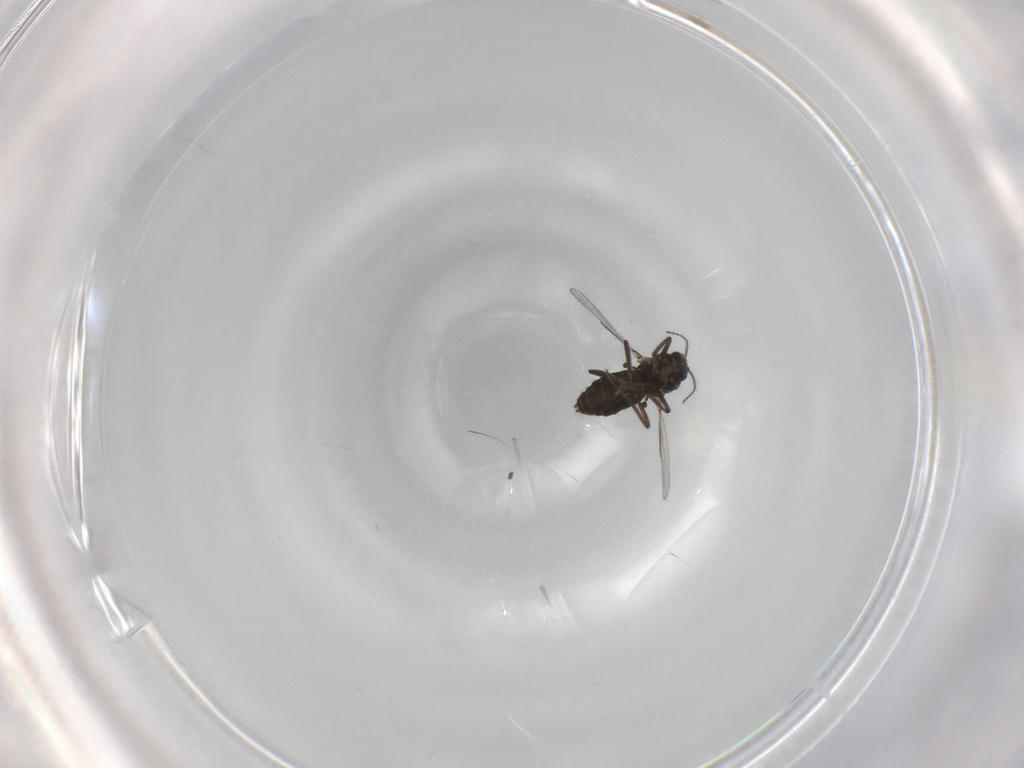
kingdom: Animalia
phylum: Arthropoda
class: Insecta
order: Diptera
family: Ceratopogonidae
